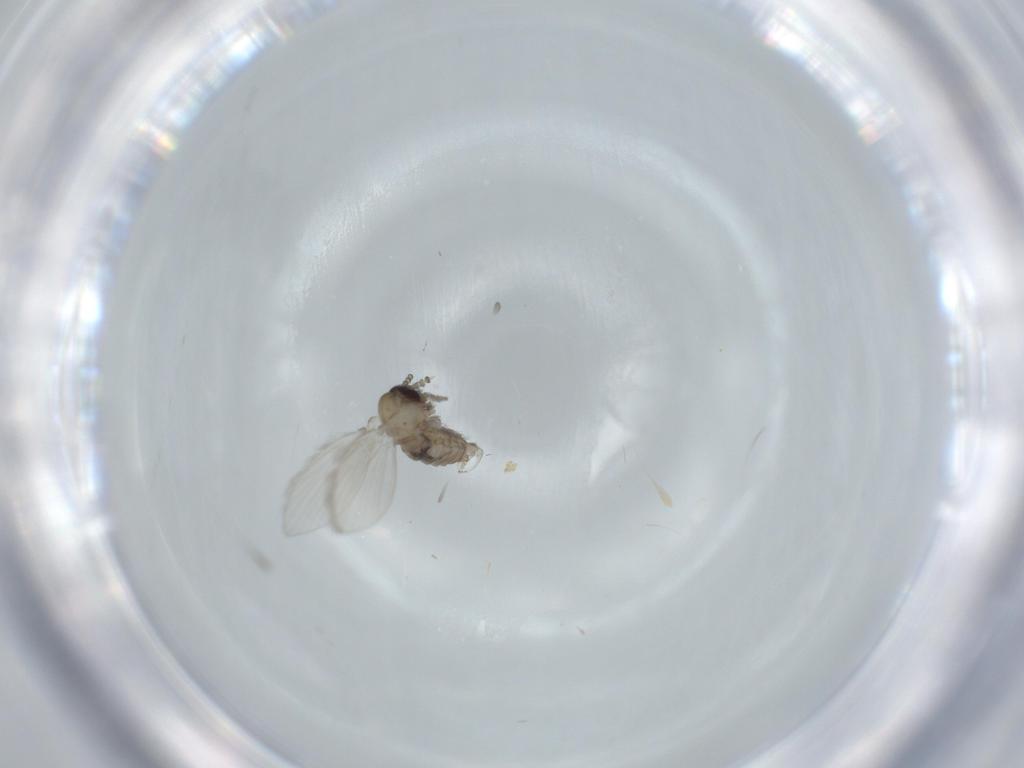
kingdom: Animalia
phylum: Arthropoda
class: Insecta
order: Diptera
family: Psychodidae
